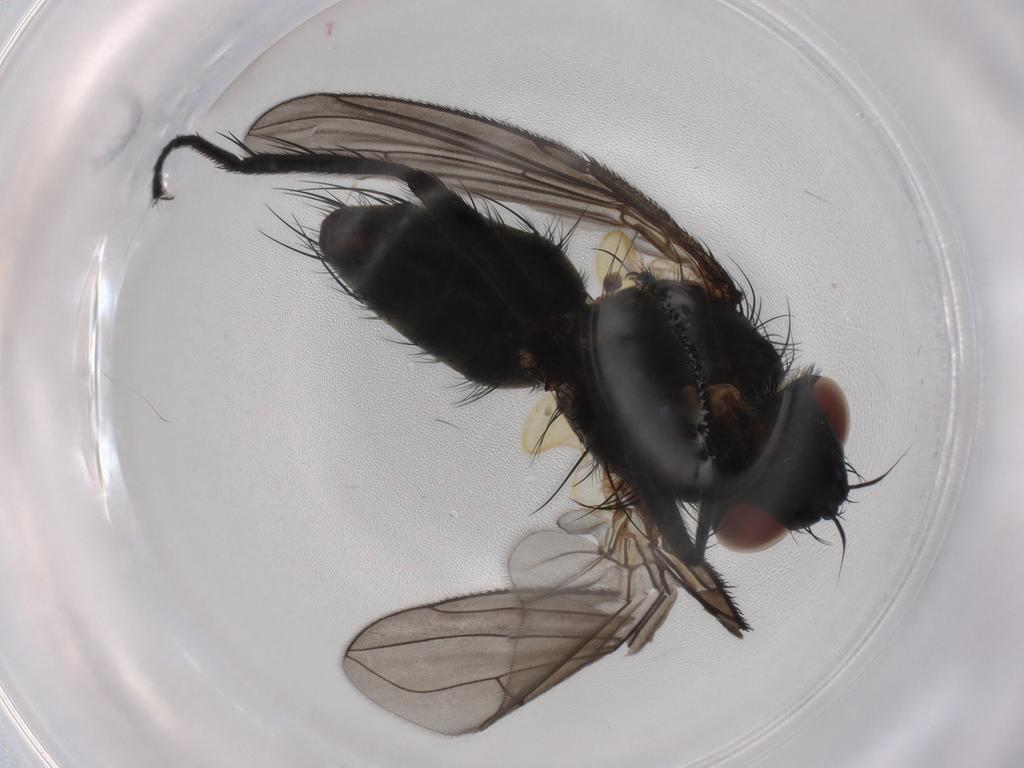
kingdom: Animalia
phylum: Arthropoda
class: Insecta
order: Diptera
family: Tachinidae
